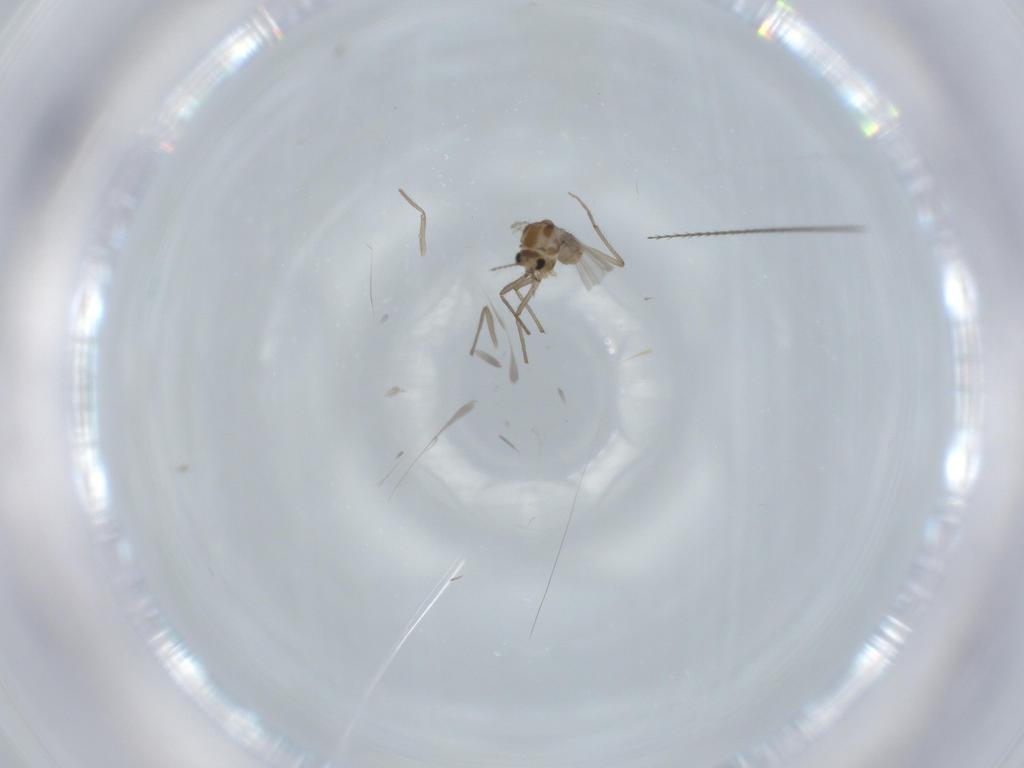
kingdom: Animalia
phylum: Arthropoda
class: Insecta
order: Diptera
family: Chironomidae
